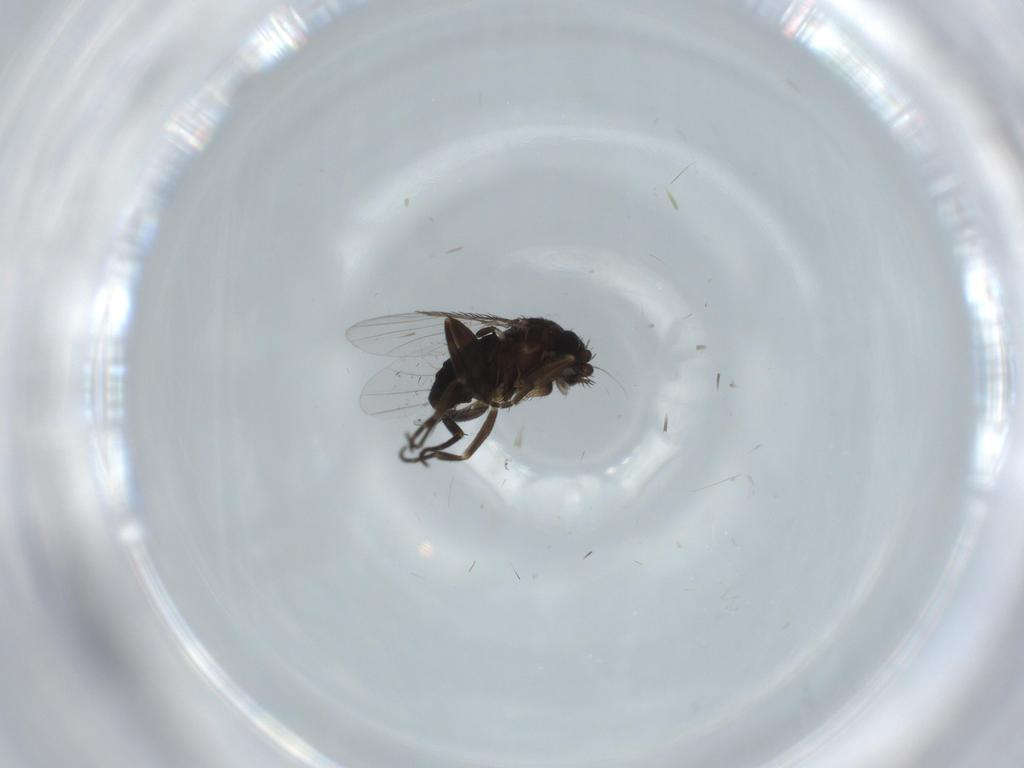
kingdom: Animalia
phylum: Arthropoda
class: Insecta
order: Diptera
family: Phoridae
